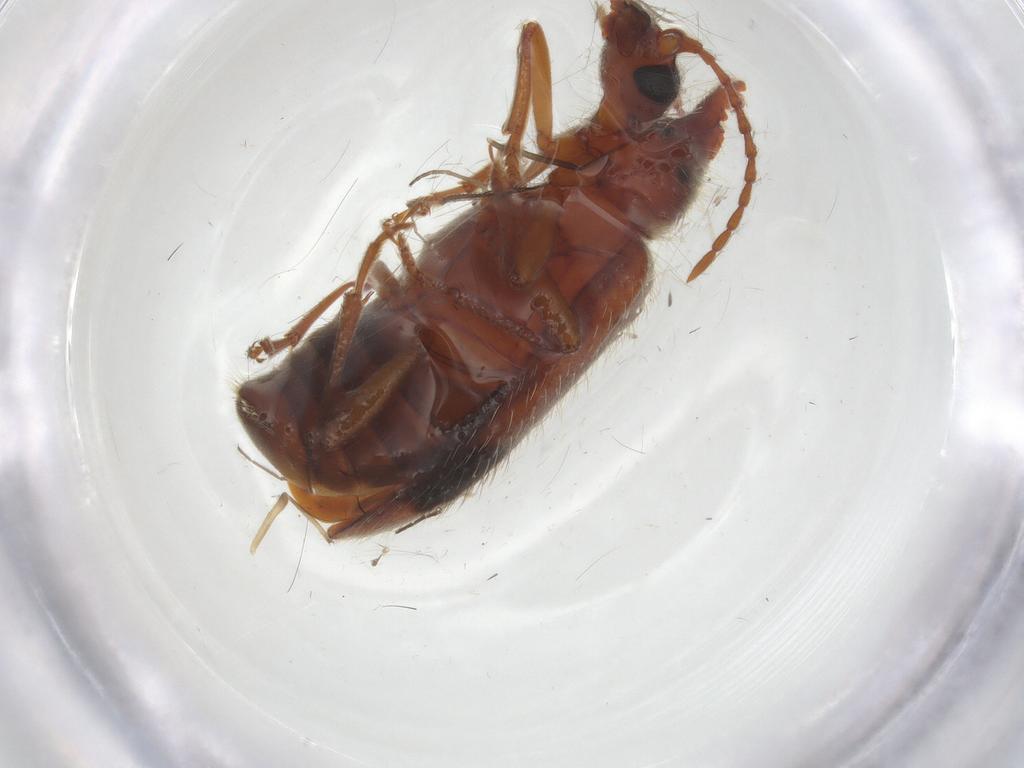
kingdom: Animalia
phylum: Arthropoda
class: Insecta
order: Coleoptera
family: Anthicidae
